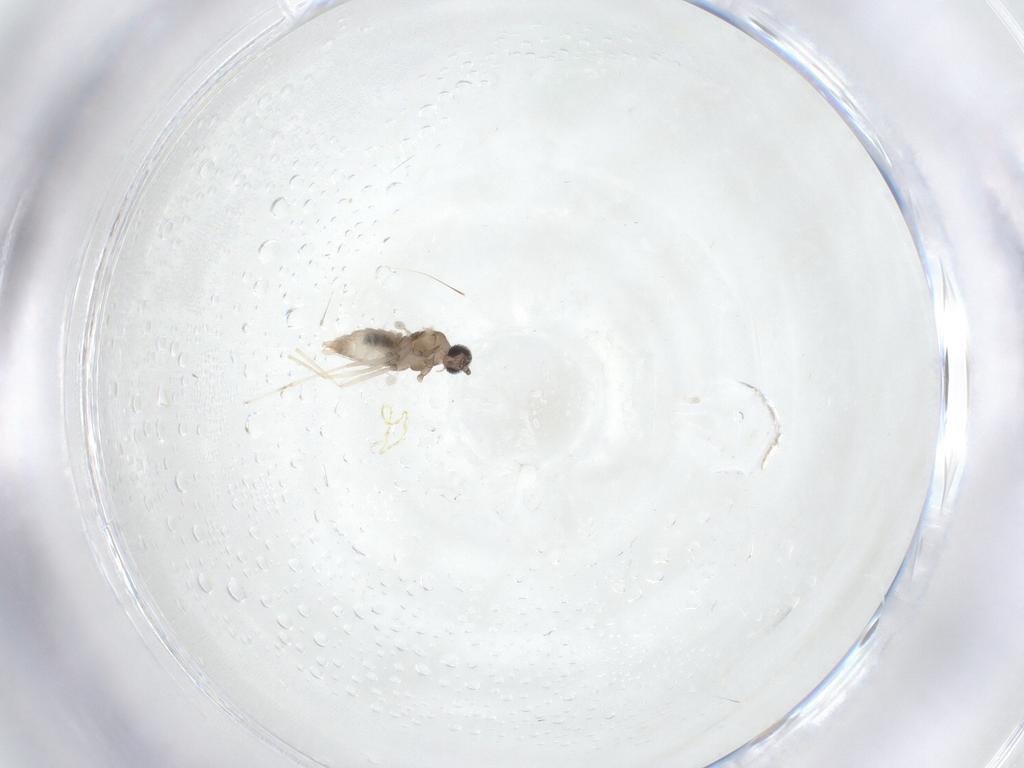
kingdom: Animalia
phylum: Arthropoda
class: Insecta
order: Diptera
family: Cecidomyiidae
